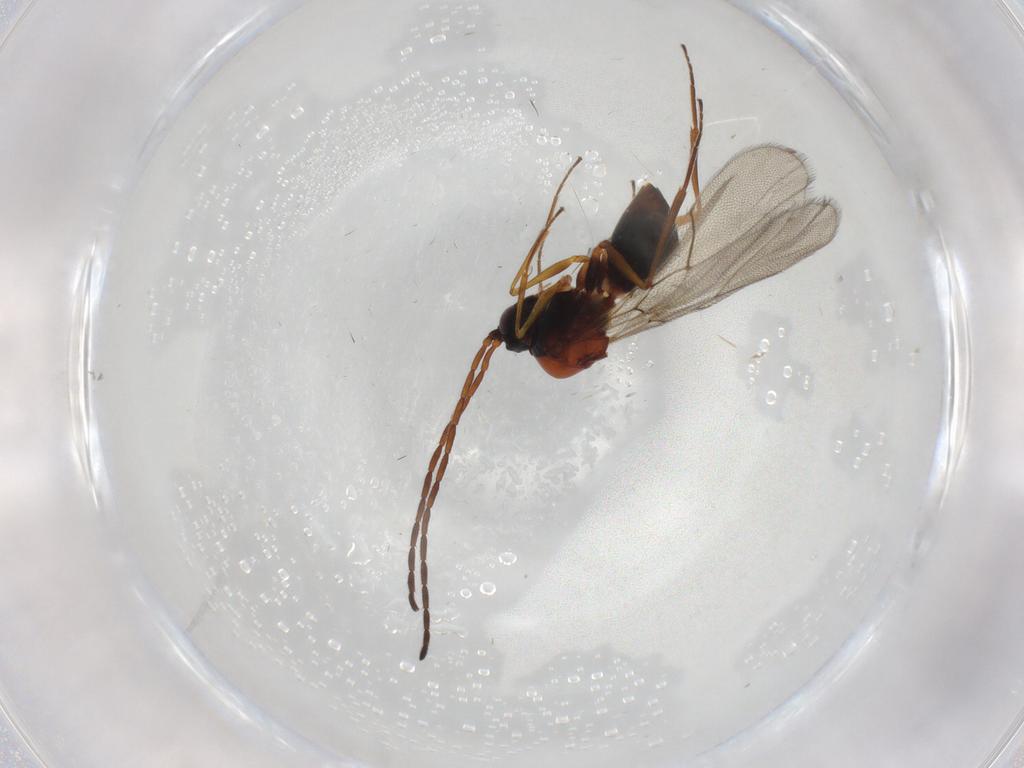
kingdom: Animalia
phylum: Arthropoda
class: Insecta
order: Hymenoptera
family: Figitidae
